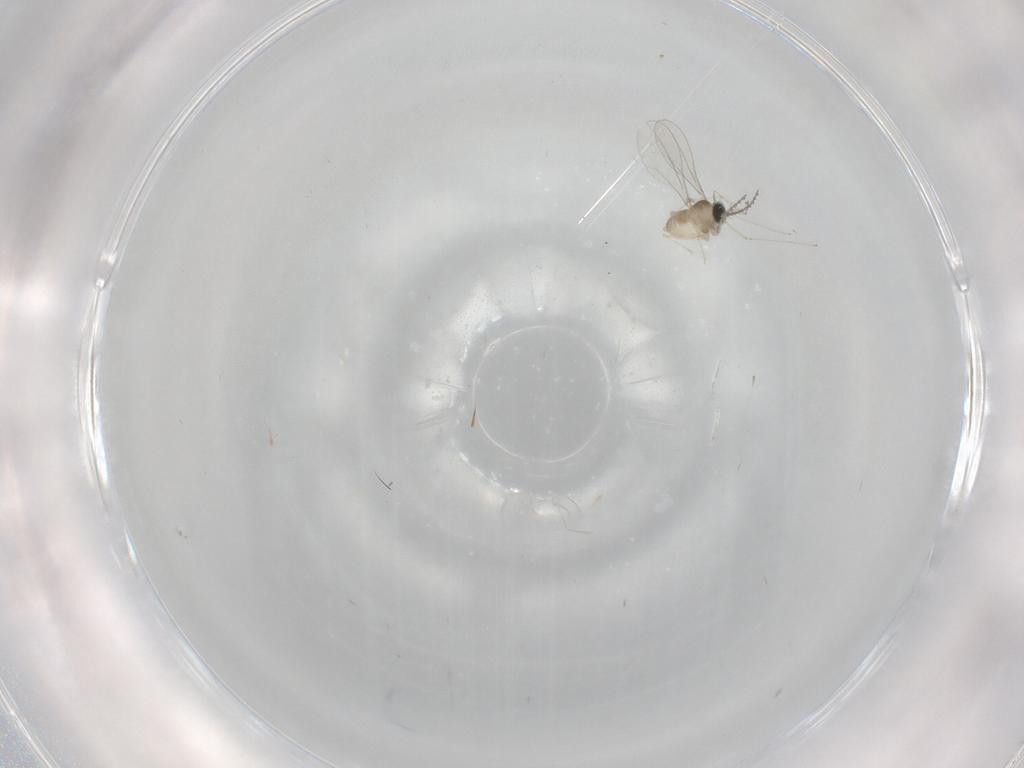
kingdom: Animalia
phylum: Arthropoda
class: Insecta
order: Diptera
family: Cecidomyiidae
